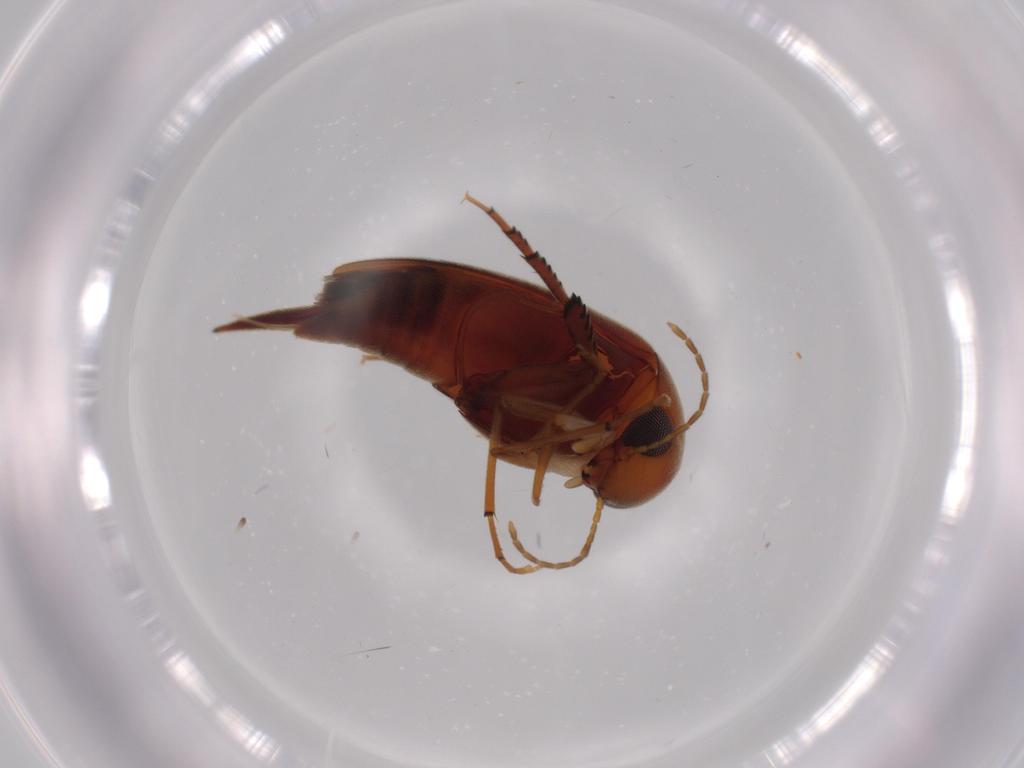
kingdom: Animalia
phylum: Arthropoda
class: Insecta
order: Coleoptera
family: Mordellidae
